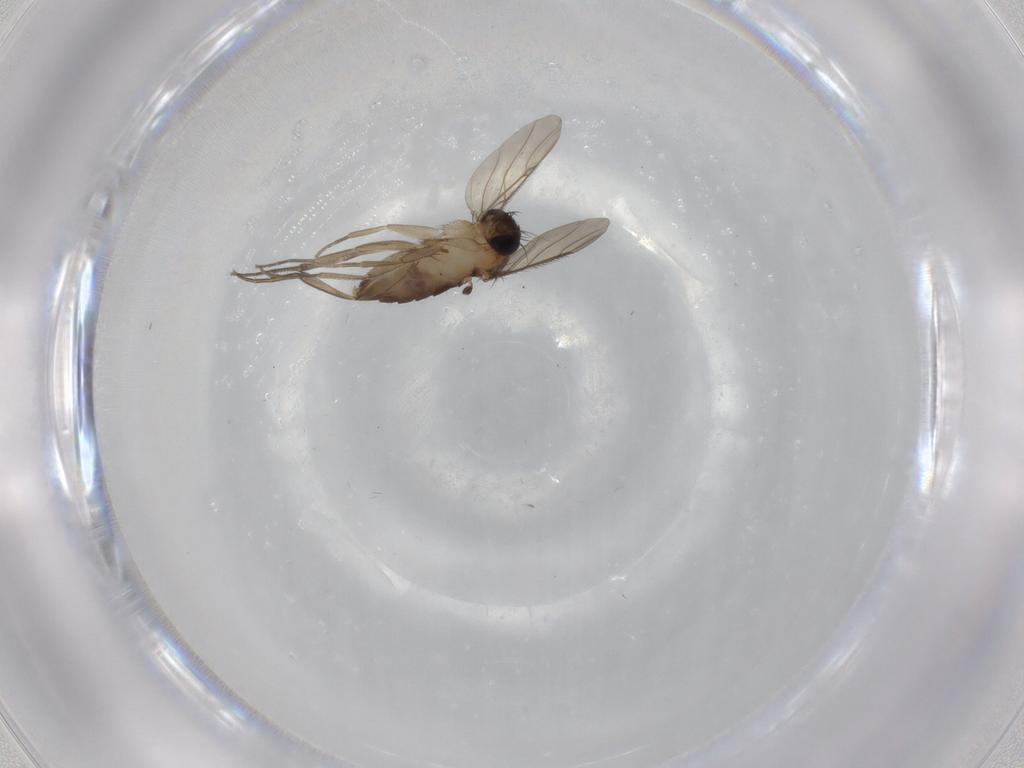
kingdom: Animalia
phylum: Arthropoda
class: Insecta
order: Diptera
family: Phoridae
